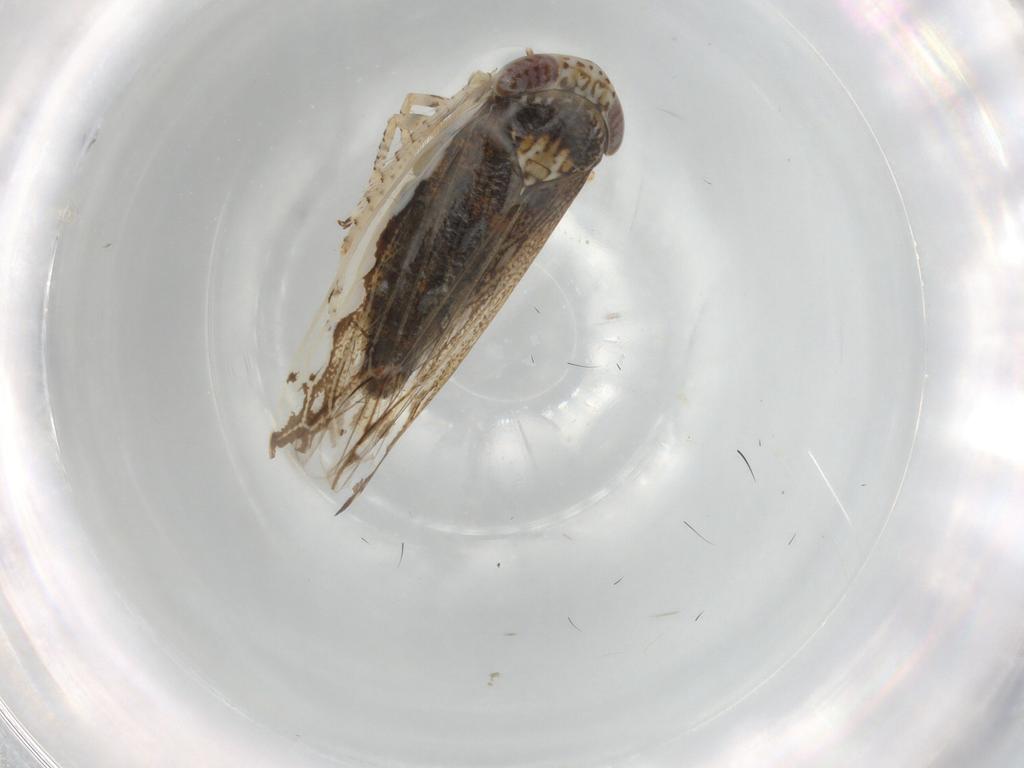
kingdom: Animalia
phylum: Arthropoda
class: Insecta
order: Hemiptera
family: Cicadellidae
